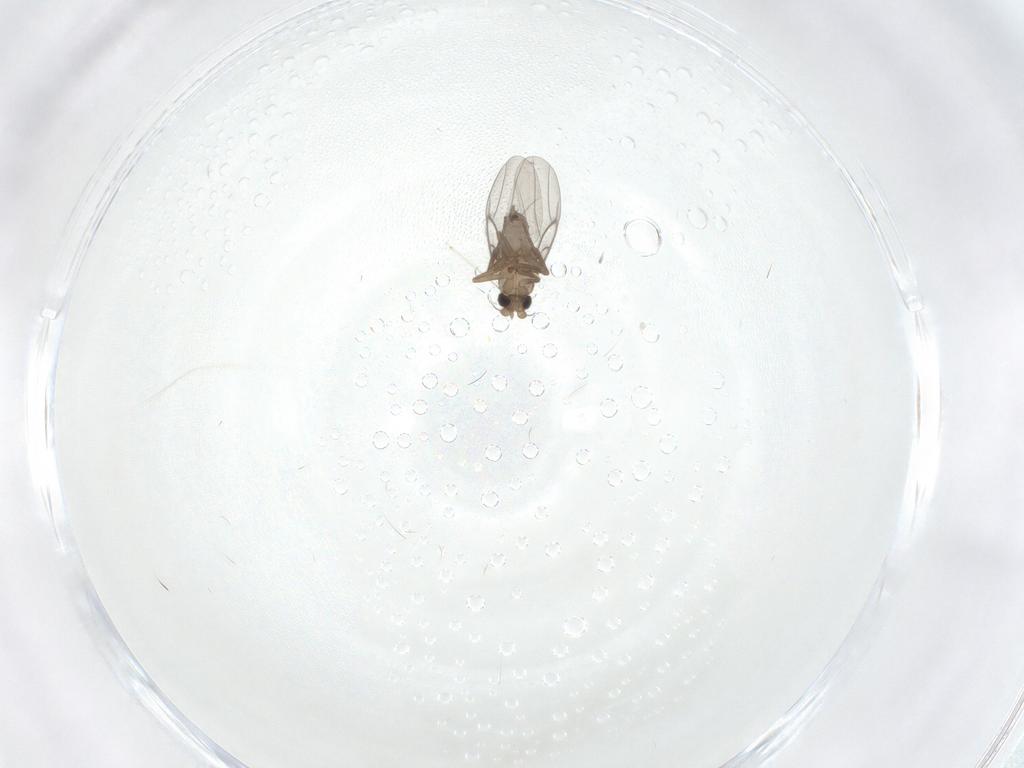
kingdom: Animalia
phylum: Arthropoda
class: Insecta
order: Diptera
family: Cecidomyiidae
